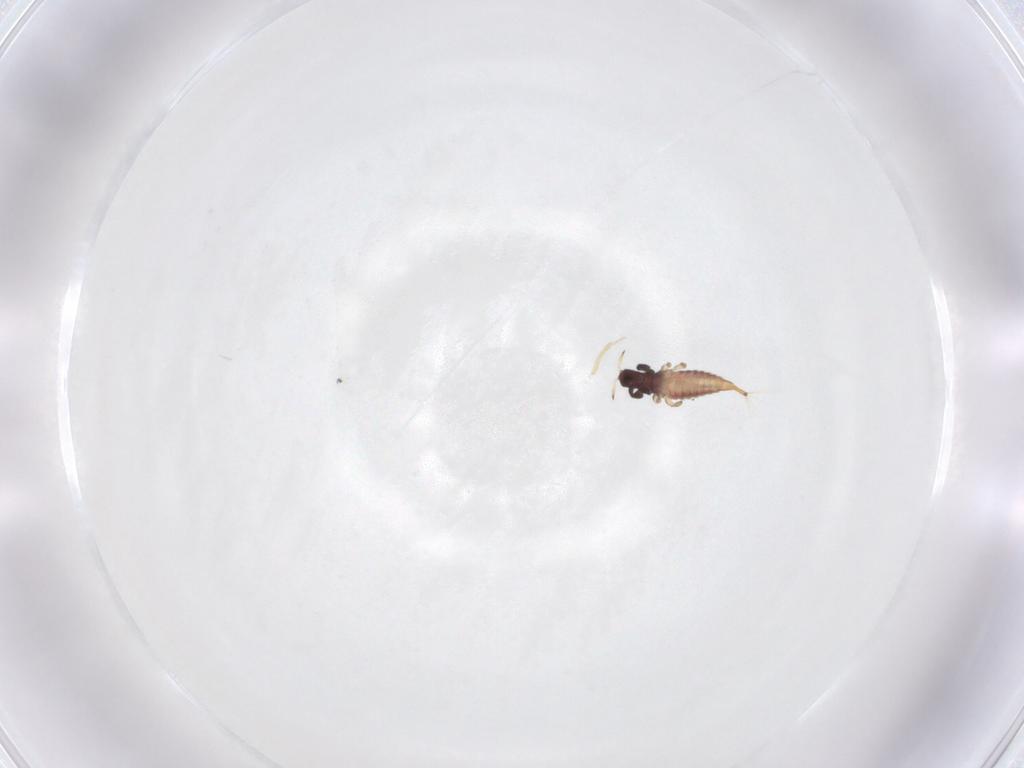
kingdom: Animalia
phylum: Arthropoda
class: Insecta
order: Thysanoptera
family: Phlaeothripidae
